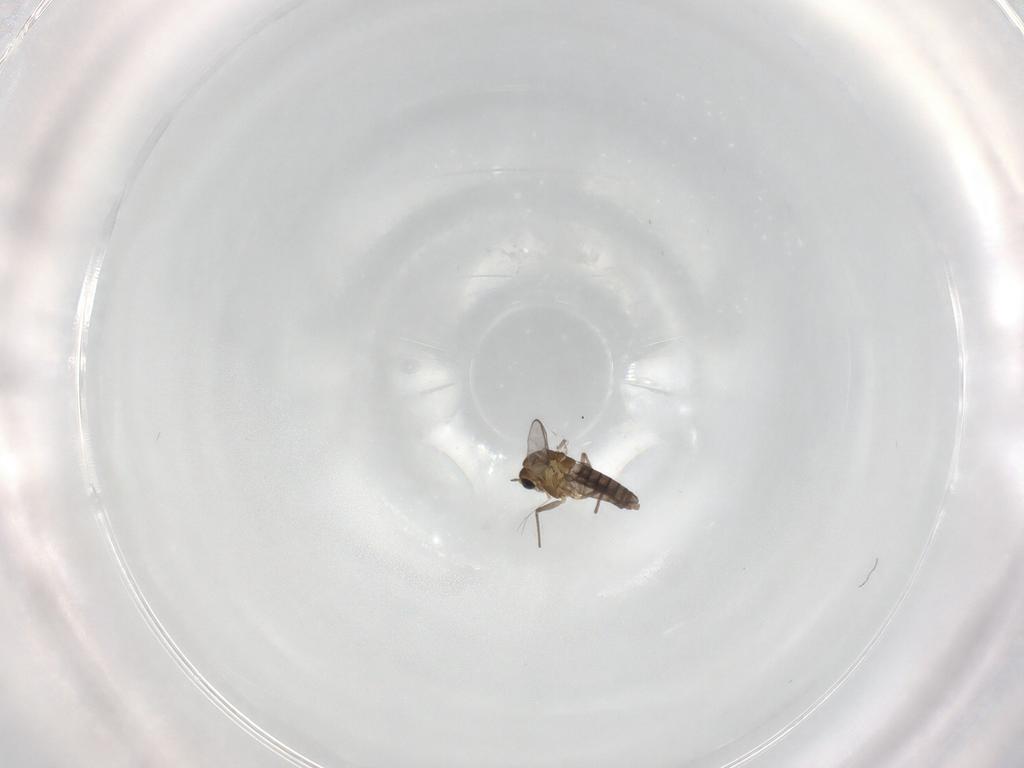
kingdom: Animalia
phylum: Arthropoda
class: Insecta
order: Diptera
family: Chironomidae
